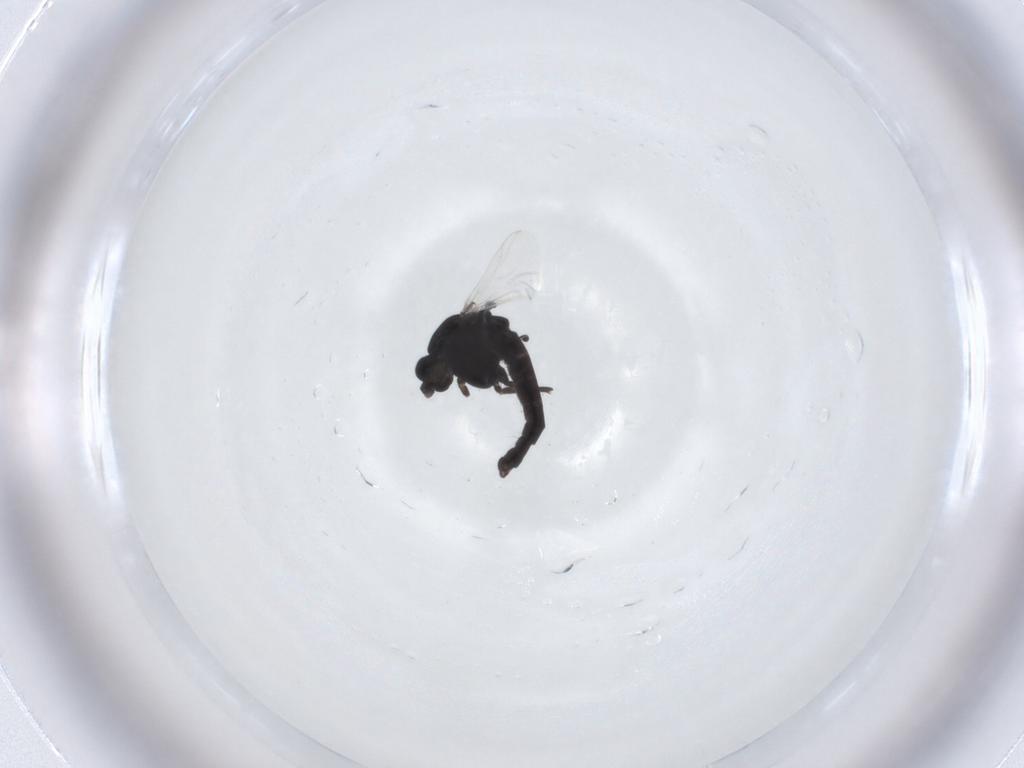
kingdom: Animalia
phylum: Arthropoda
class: Insecta
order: Diptera
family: Chironomidae
